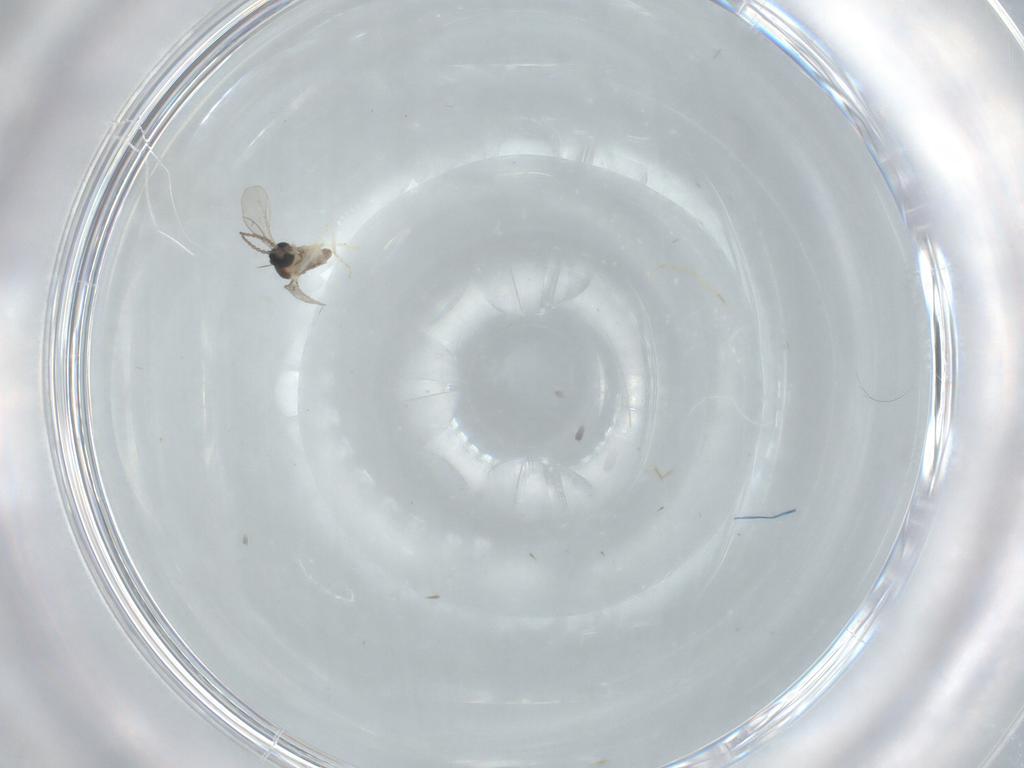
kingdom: Animalia
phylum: Arthropoda
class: Insecta
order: Diptera
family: Cecidomyiidae
